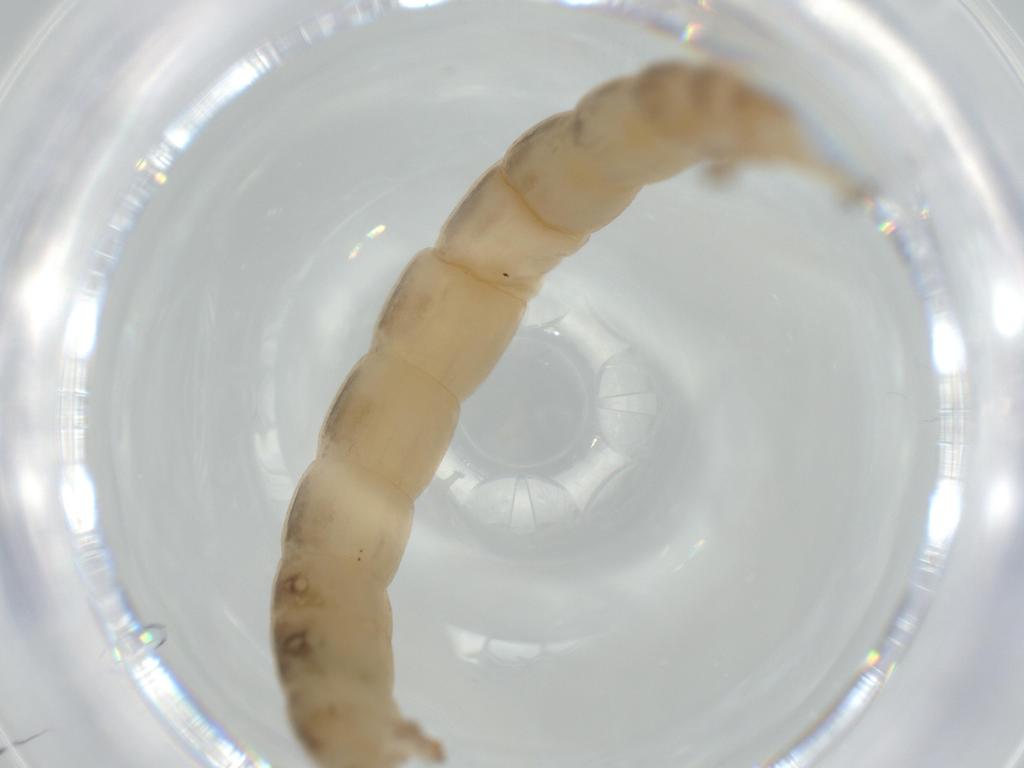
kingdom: Animalia
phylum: Arthropoda
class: Insecta
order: Diptera
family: Chironomidae
